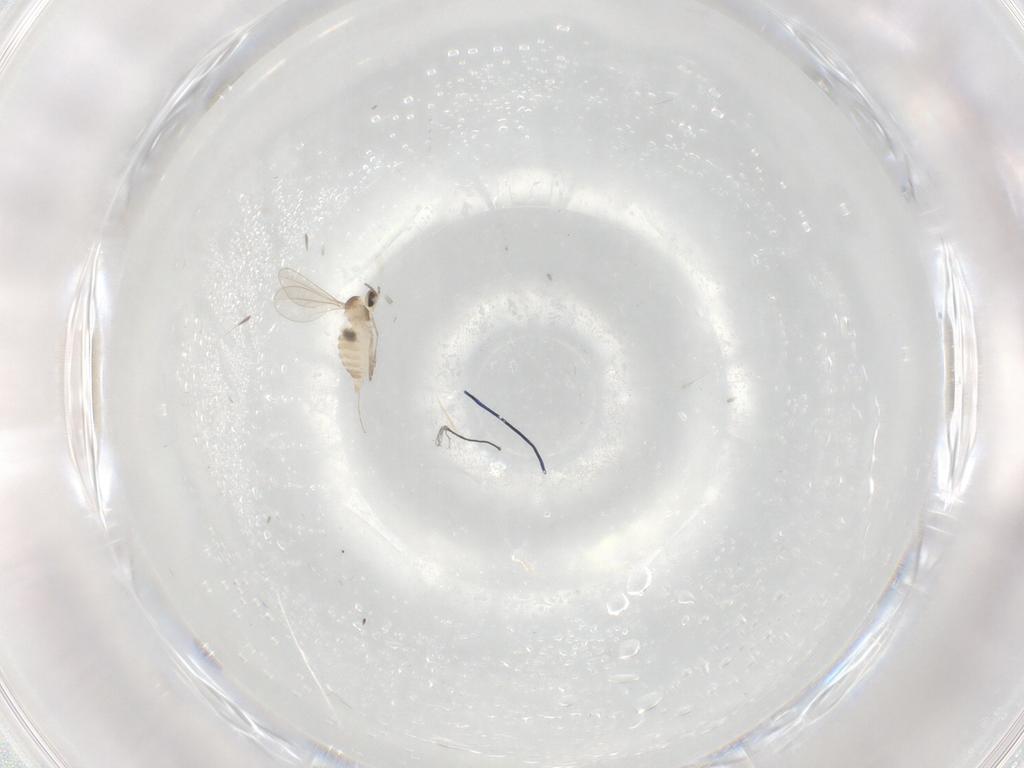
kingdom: Animalia
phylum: Arthropoda
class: Insecta
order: Diptera
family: Cecidomyiidae
